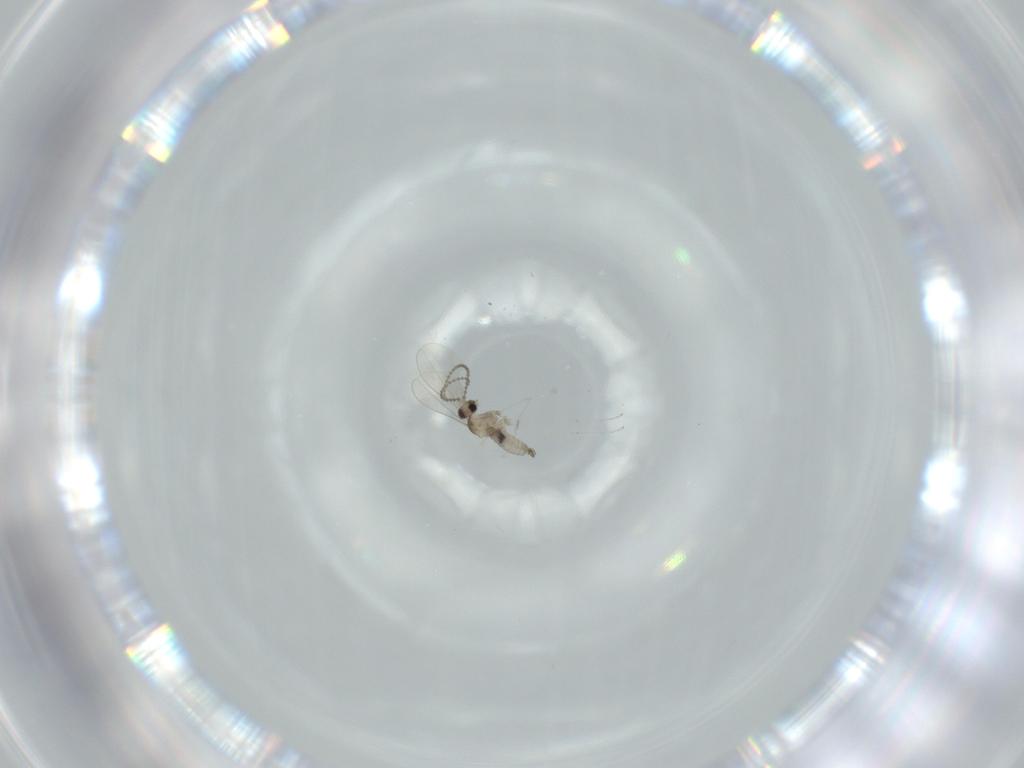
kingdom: Animalia
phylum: Arthropoda
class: Insecta
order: Diptera
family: Cecidomyiidae
